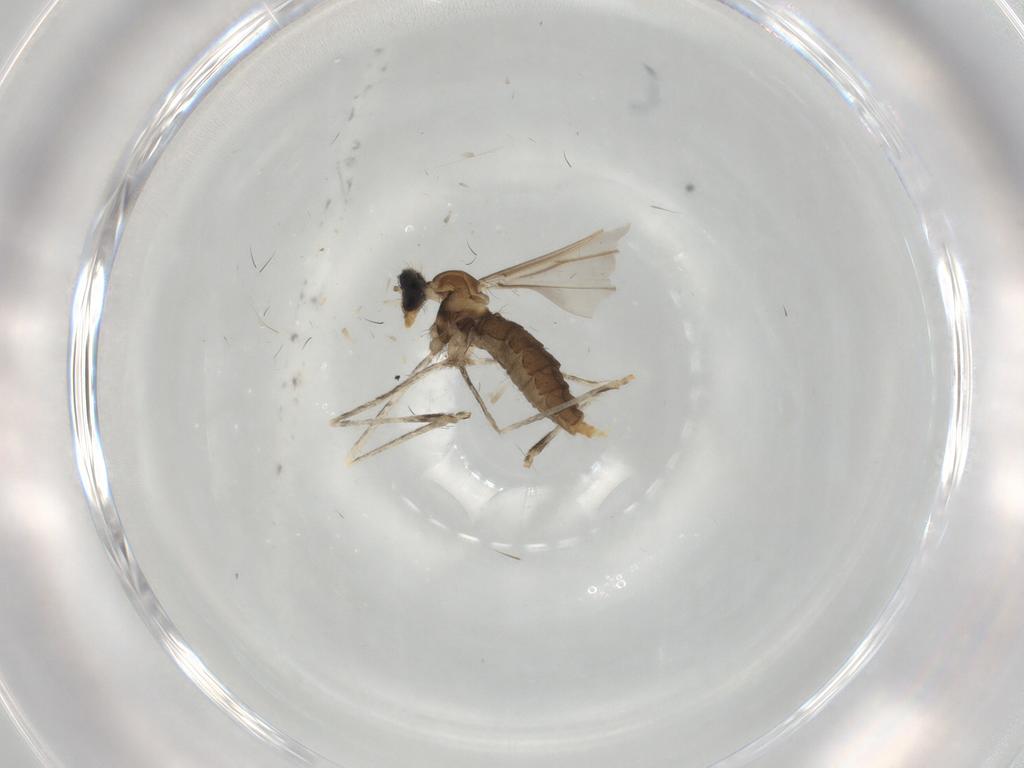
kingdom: Animalia
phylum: Arthropoda
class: Insecta
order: Diptera
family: Cecidomyiidae
